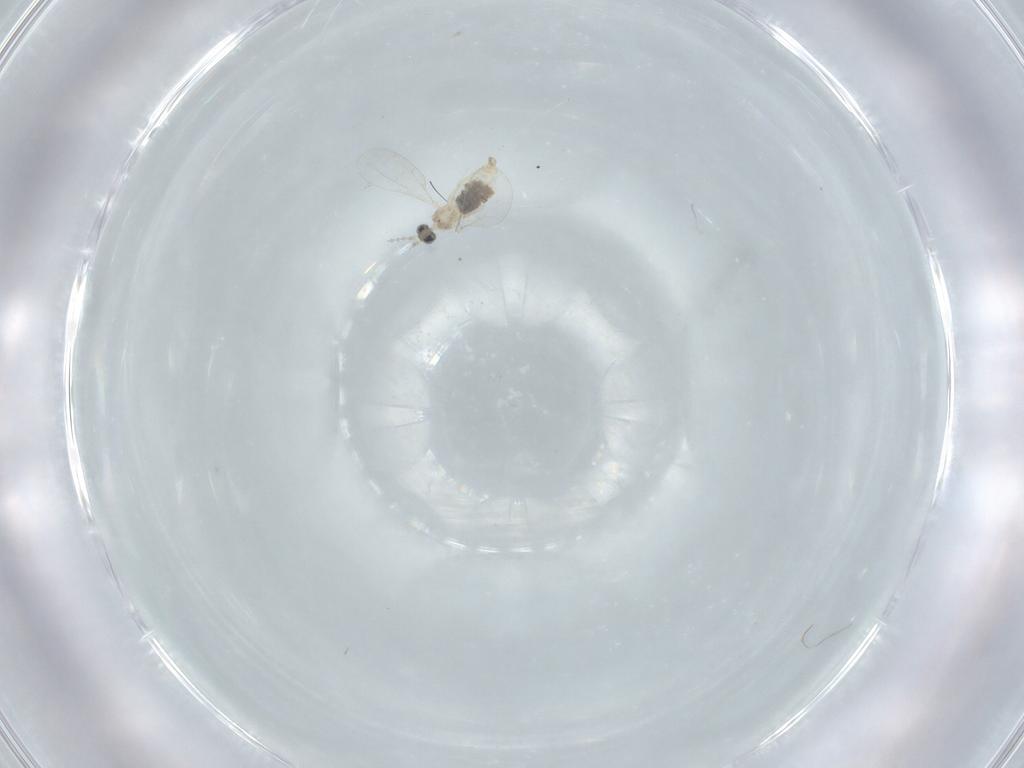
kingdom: Animalia
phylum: Arthropoda
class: Insecta
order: Diptera
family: Cecidomyiidae
